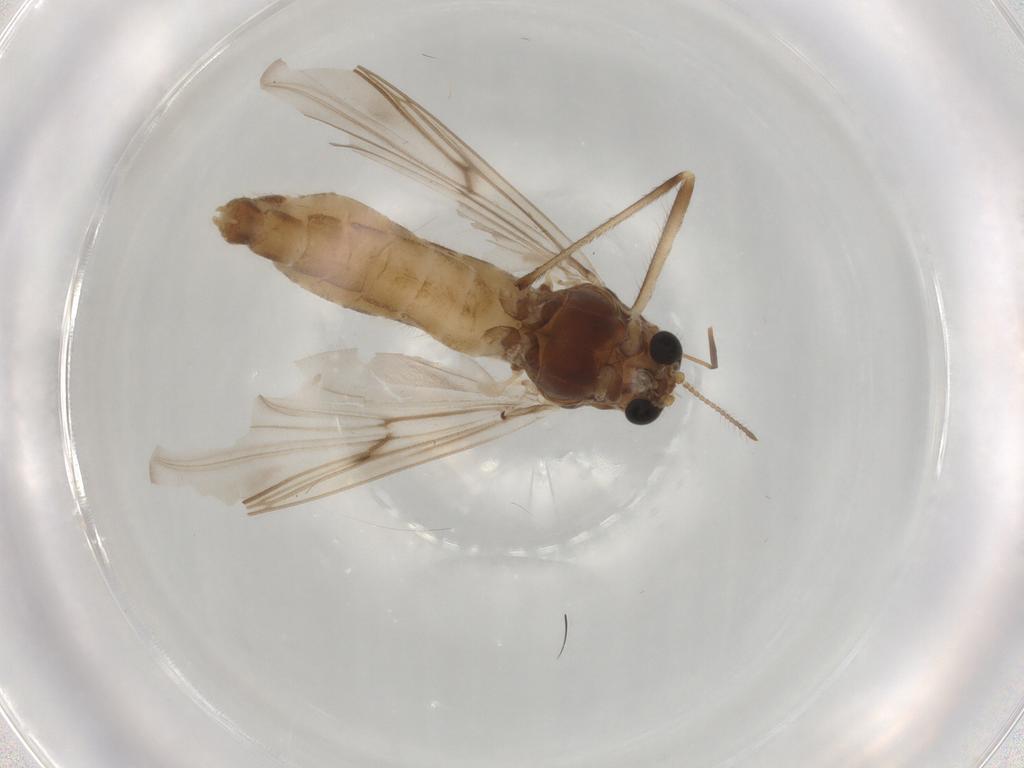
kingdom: Animalia
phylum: Arthropoda
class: Insecta
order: Diptera
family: Chironomidae
